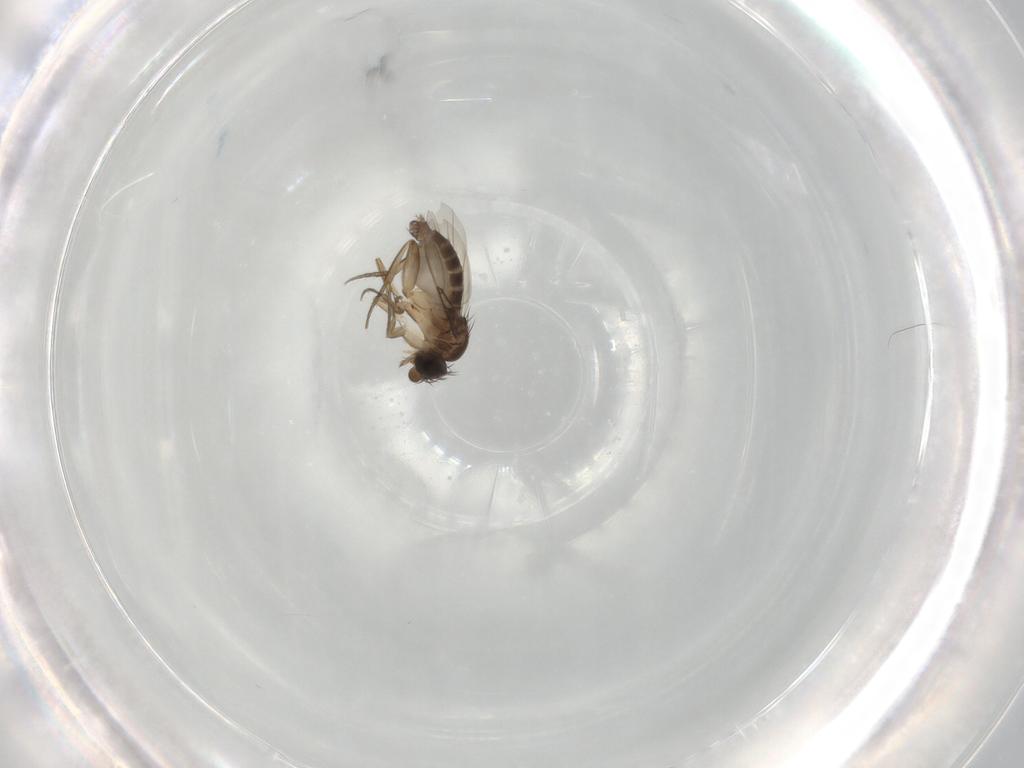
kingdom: Animalia
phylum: Arthropoda
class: Insecta
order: Diptera
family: Phoridae
